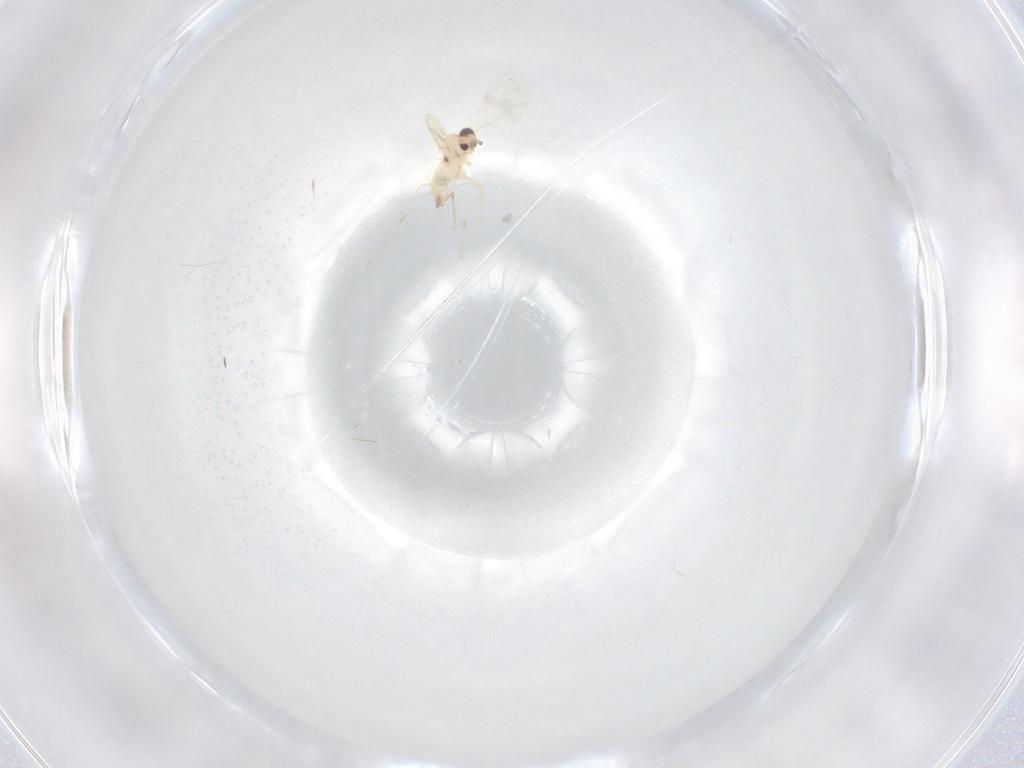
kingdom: Animalia
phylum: Arthropoda
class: Insecta
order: Diptera
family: Cecidomyiidae
